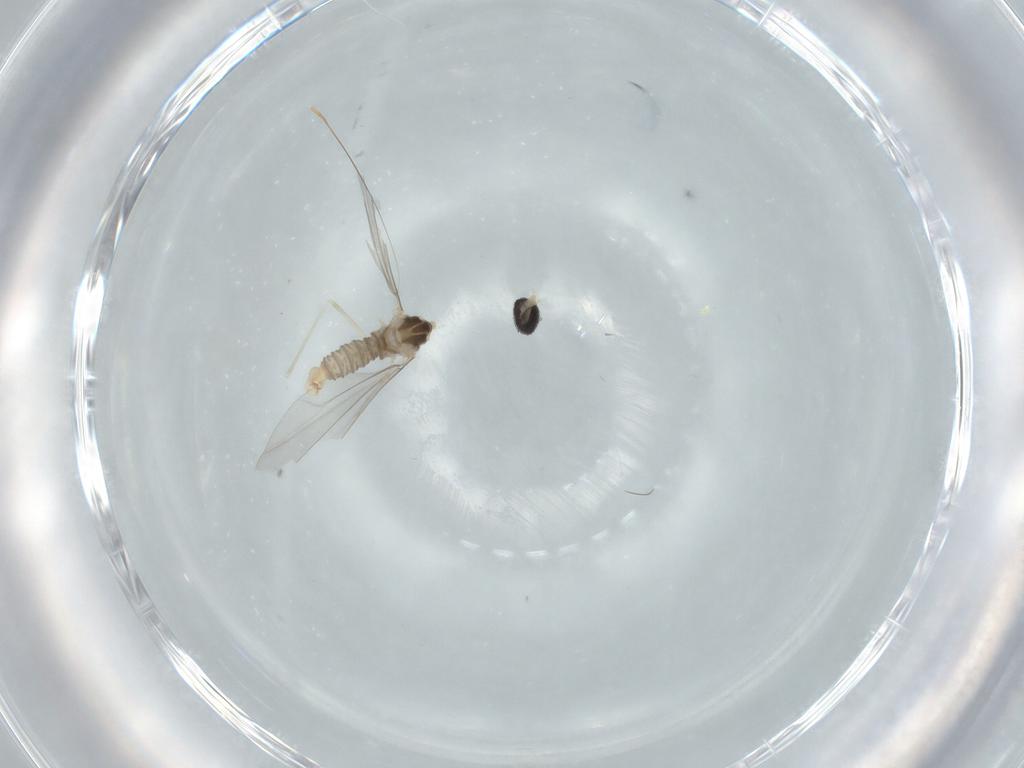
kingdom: Animalia
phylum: Arthropoda
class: Insecta
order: Diptera
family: Cecidomyiidae
